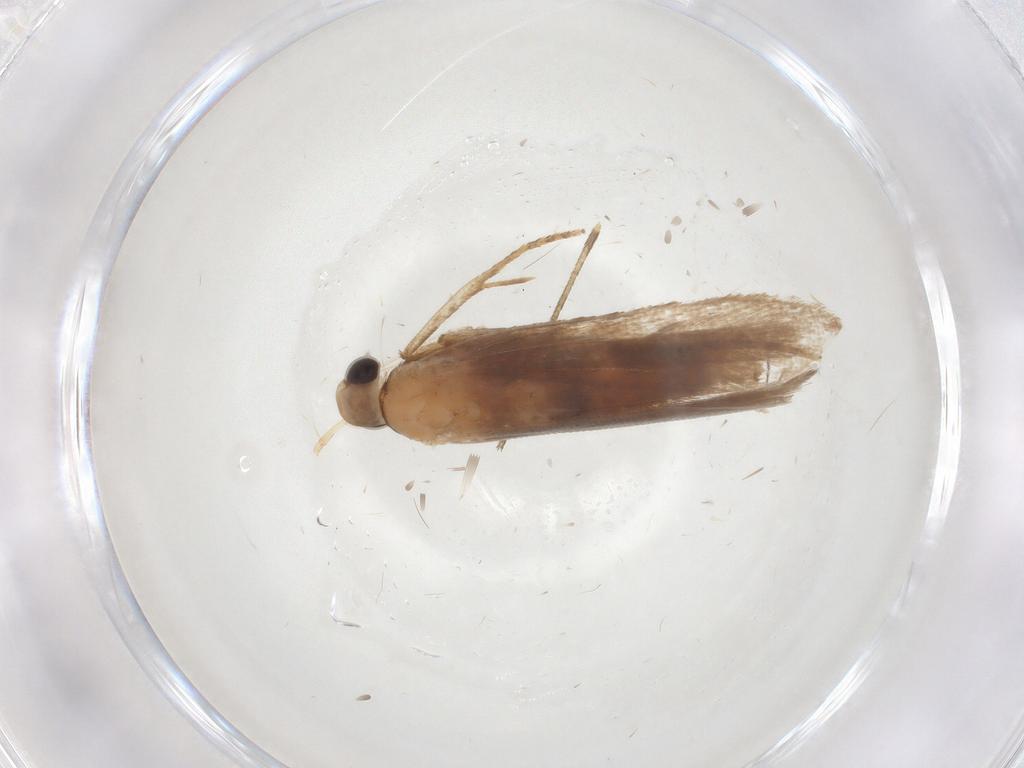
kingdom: Animalia
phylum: Arthropoda
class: Insecta
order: Lepidoptera
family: Gelechiidae
